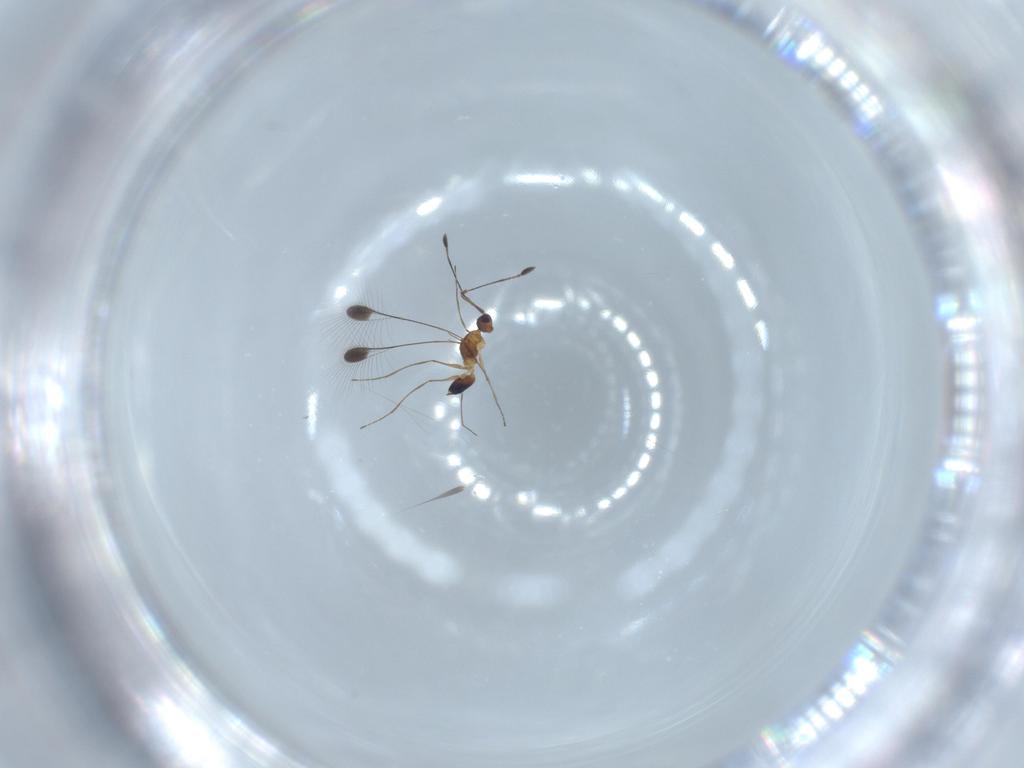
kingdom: Animalia
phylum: Arthropoda
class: Insecta
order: Hymenoptera
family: Mymaridae
